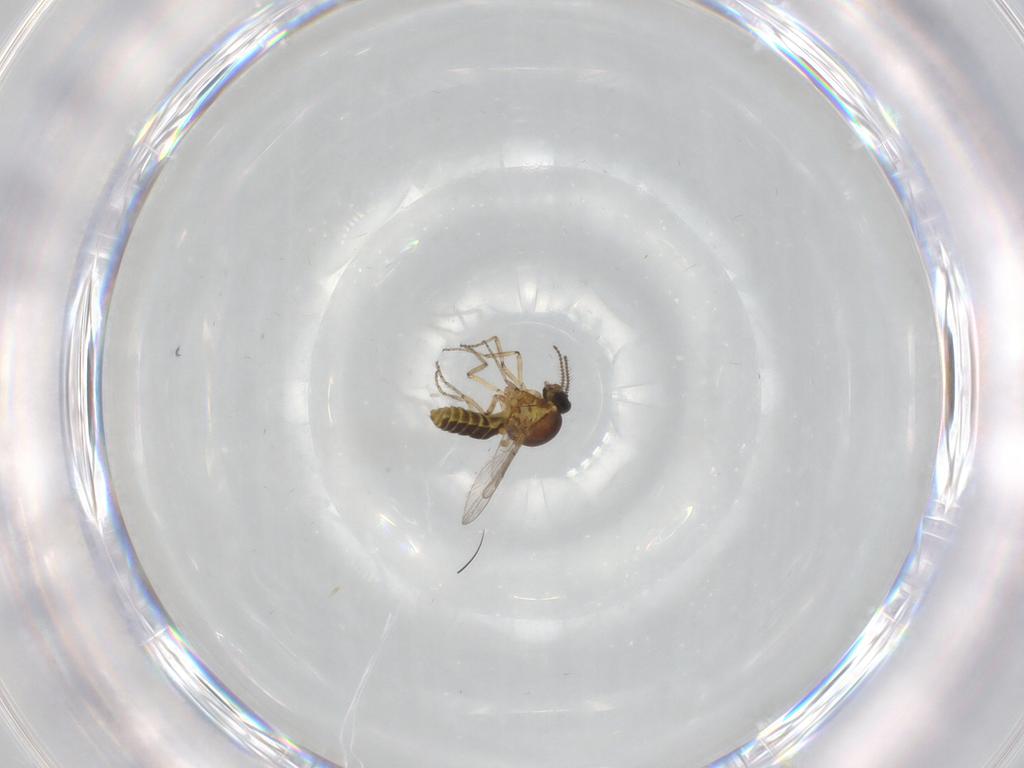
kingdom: Animalia
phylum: Arthropoda
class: Insecta
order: Diptera
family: Ceratopogonidae
